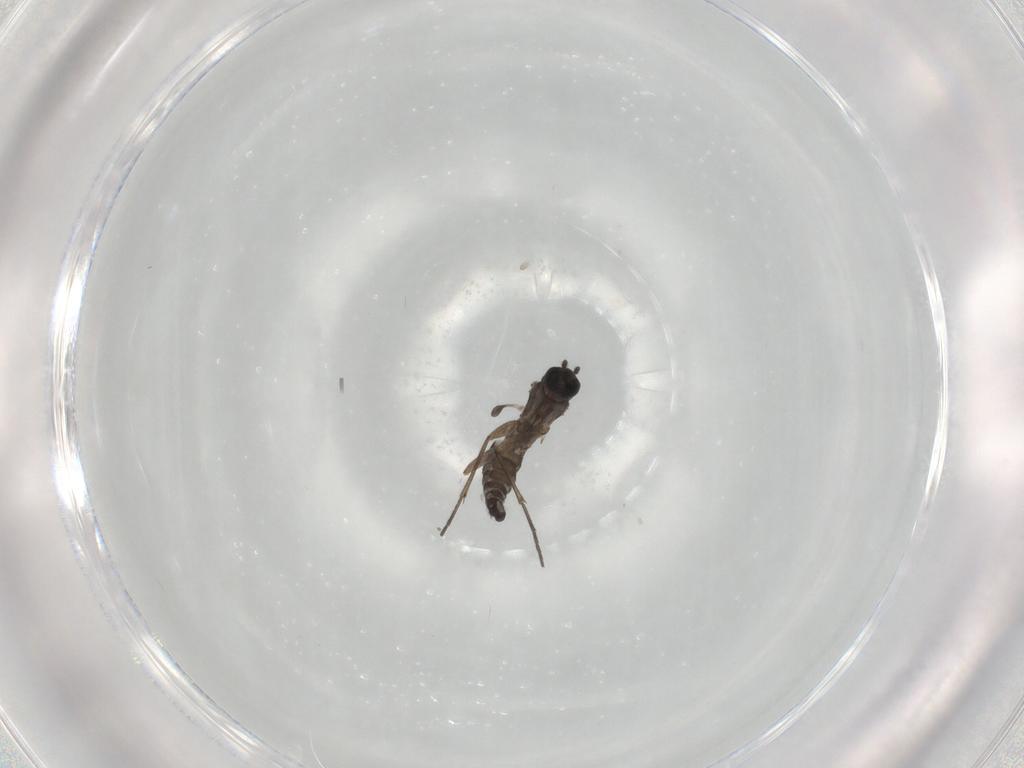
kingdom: Animalia
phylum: Arthropoda
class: Insecta
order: Diptera
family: Sciaridae
